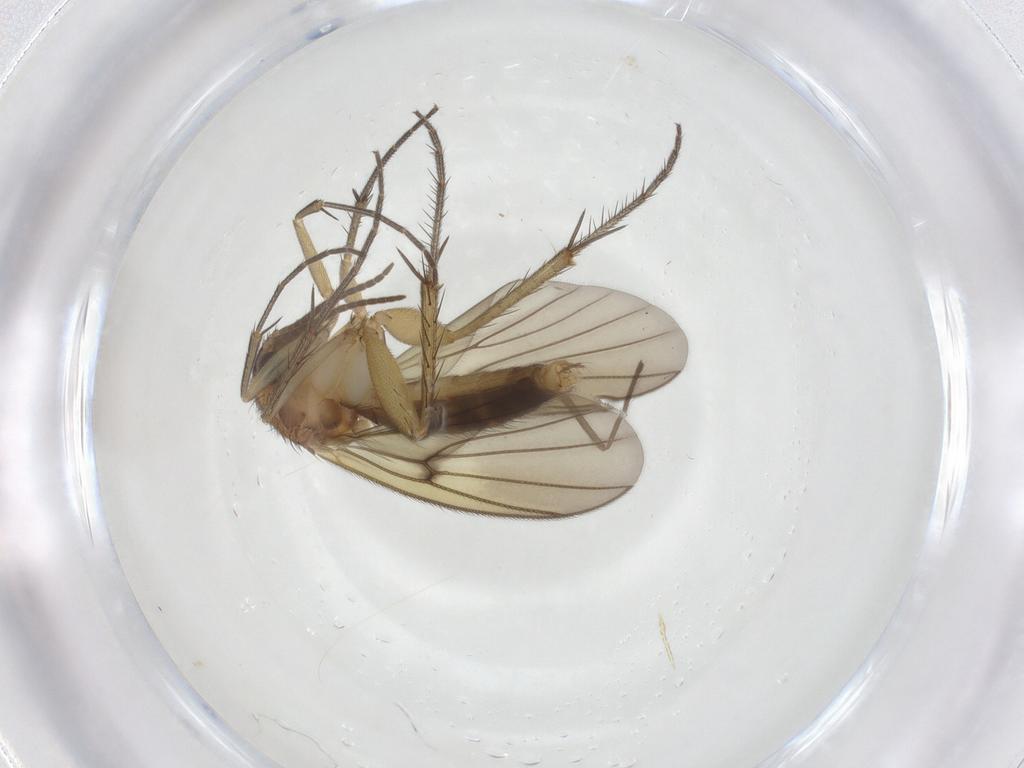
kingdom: Animalia
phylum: Arthropoda
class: Insecta
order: Diptera
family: Chironomidae
